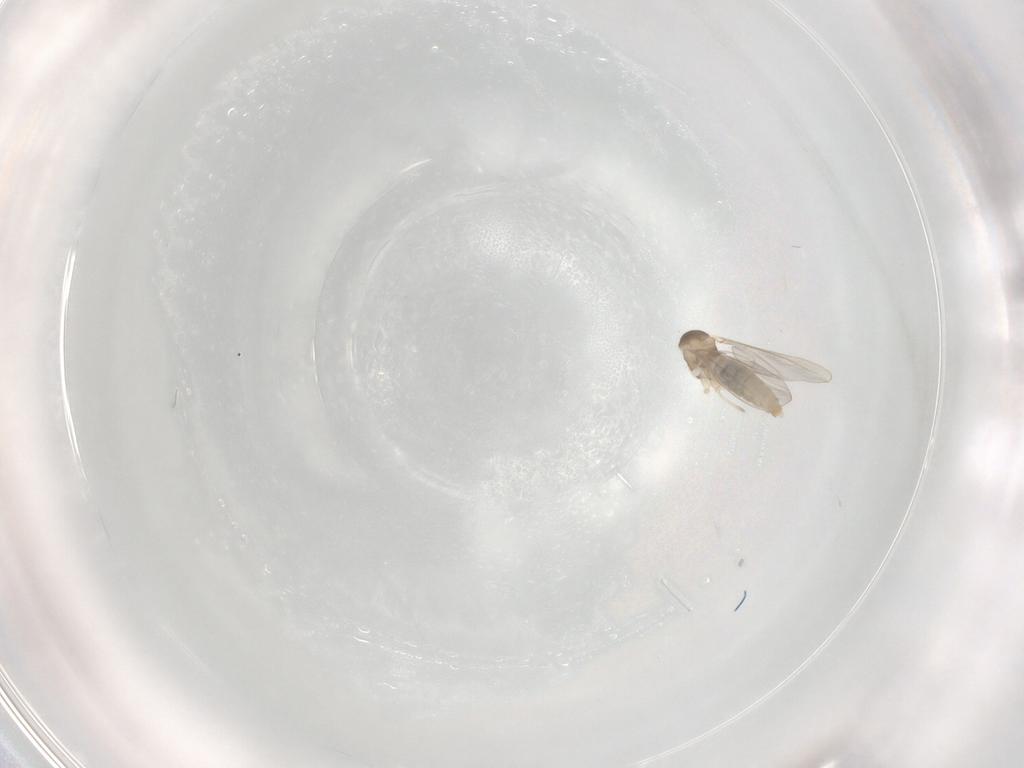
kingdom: Animalia
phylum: Arthropoda
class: Insecta
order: Diptera
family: Cecidomyiidae
